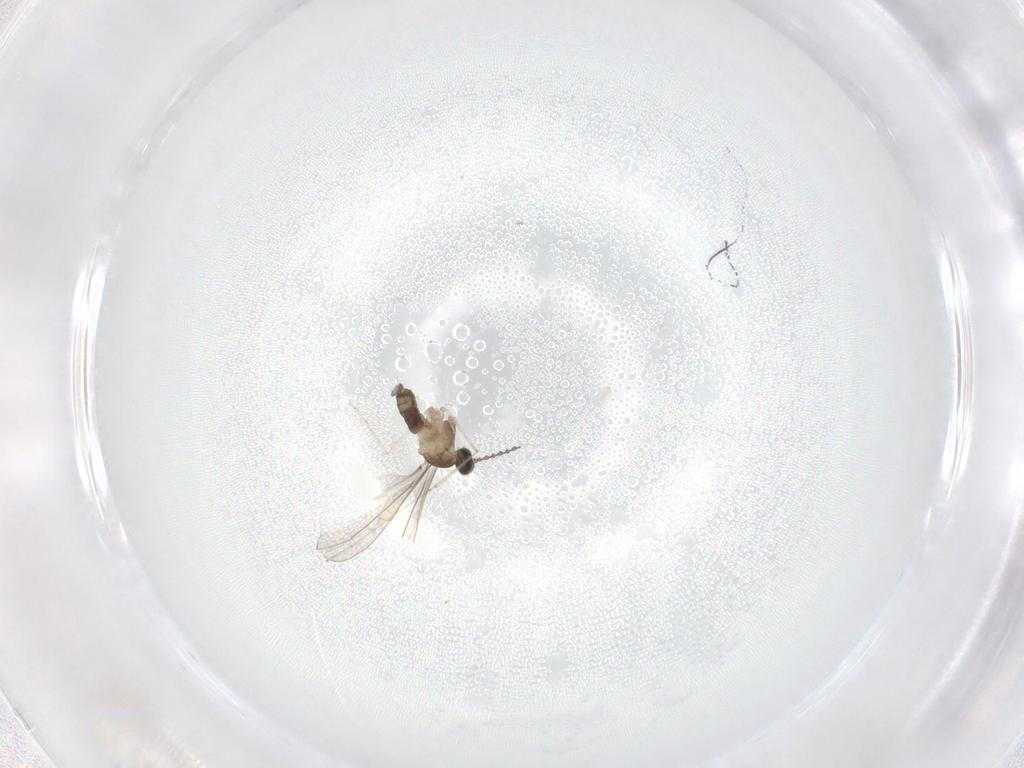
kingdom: Animalia
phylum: Arthropoda
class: Insecta
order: Diptera
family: Cecidomyiidae
